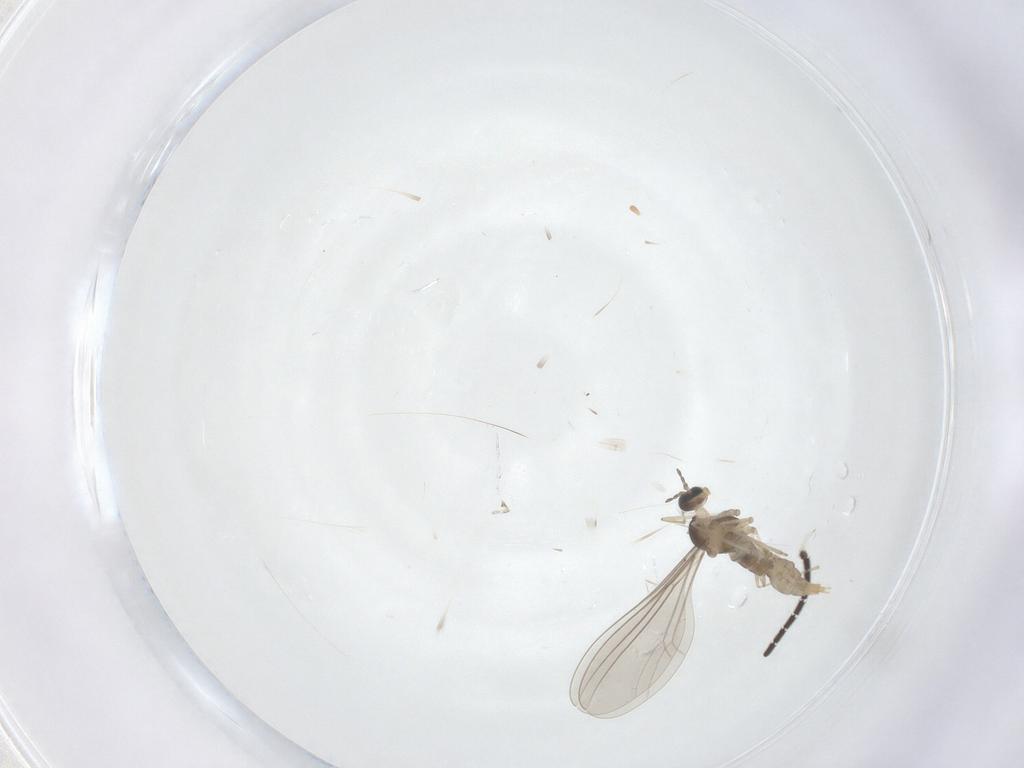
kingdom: Animalia
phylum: Arthropoda
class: Insecta
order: Diptera
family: Cecidomyiidae
